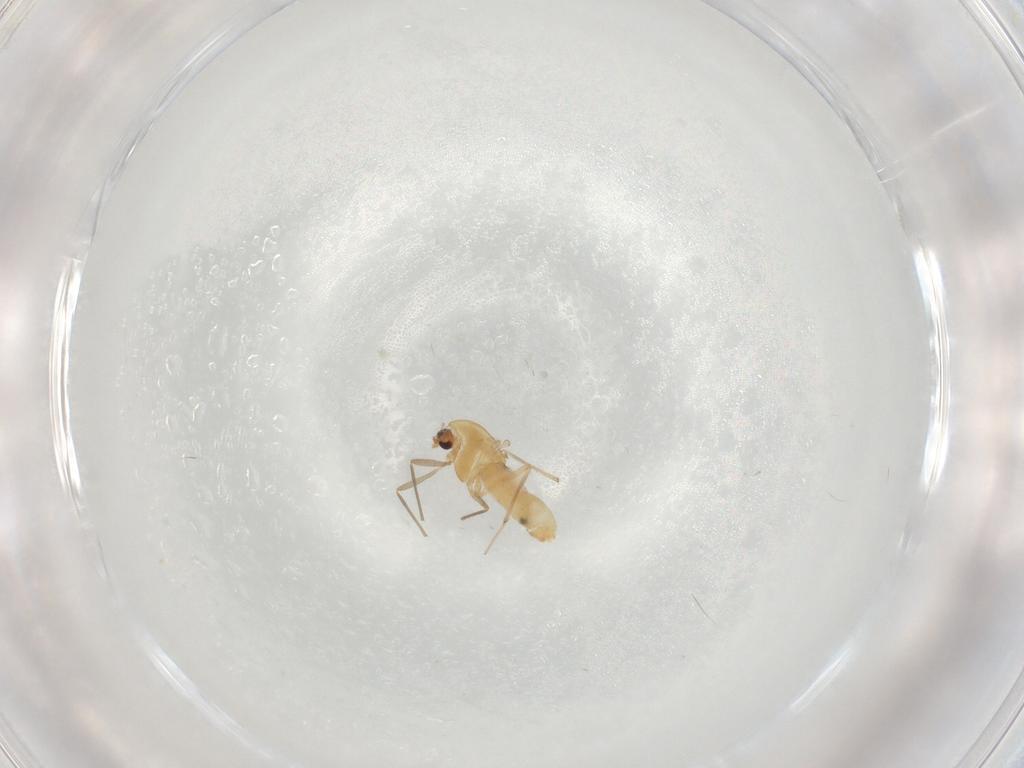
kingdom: Animalia
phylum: Arthropoda
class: Insecta
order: Diptera
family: Chironomidae
